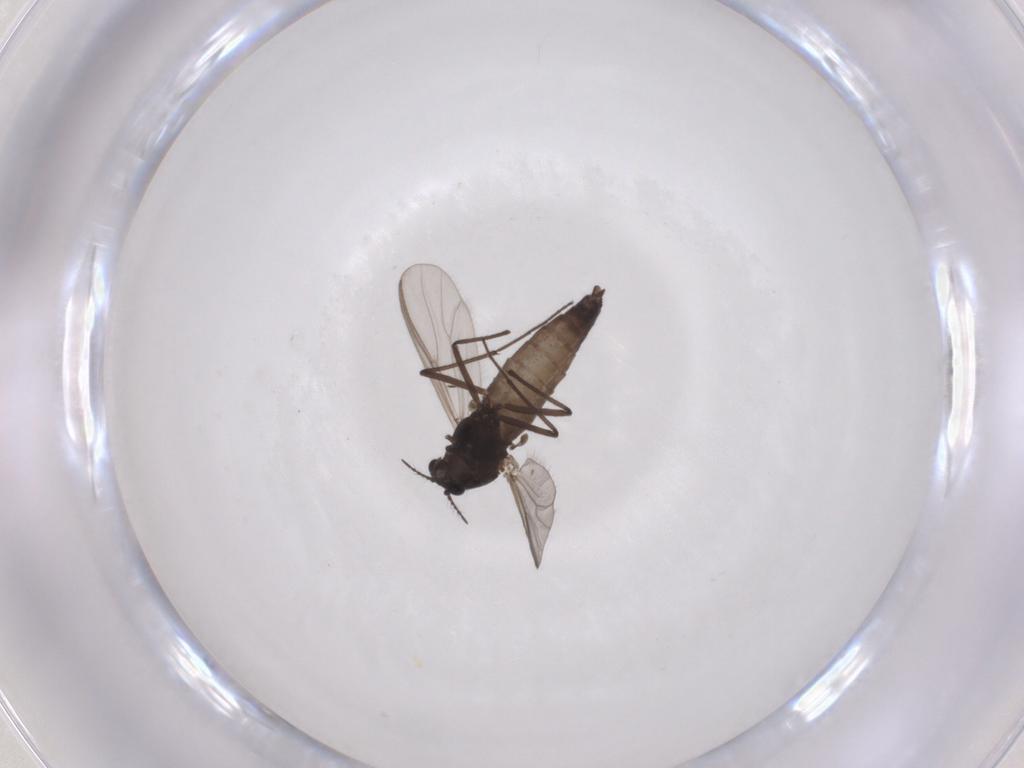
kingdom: Animalia
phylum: Arthropoda
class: Insecta
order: Diptera
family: Chironomidae
